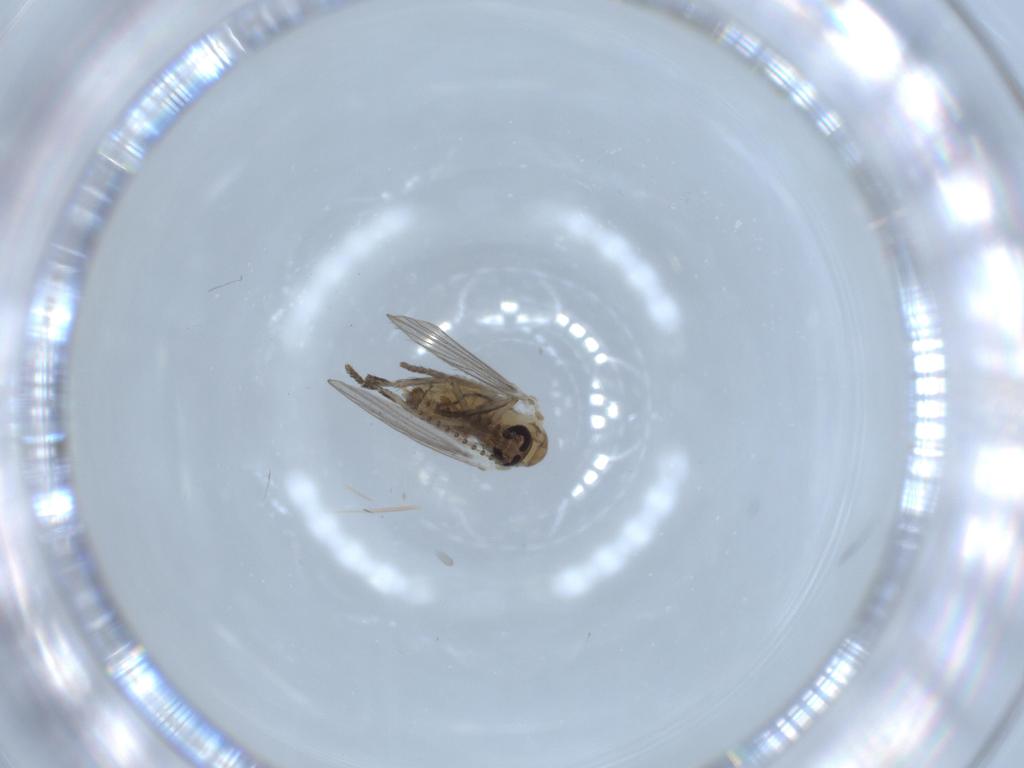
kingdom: Animalia
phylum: Arthropoda
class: Insecta
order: Diptera
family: Psychodidae
